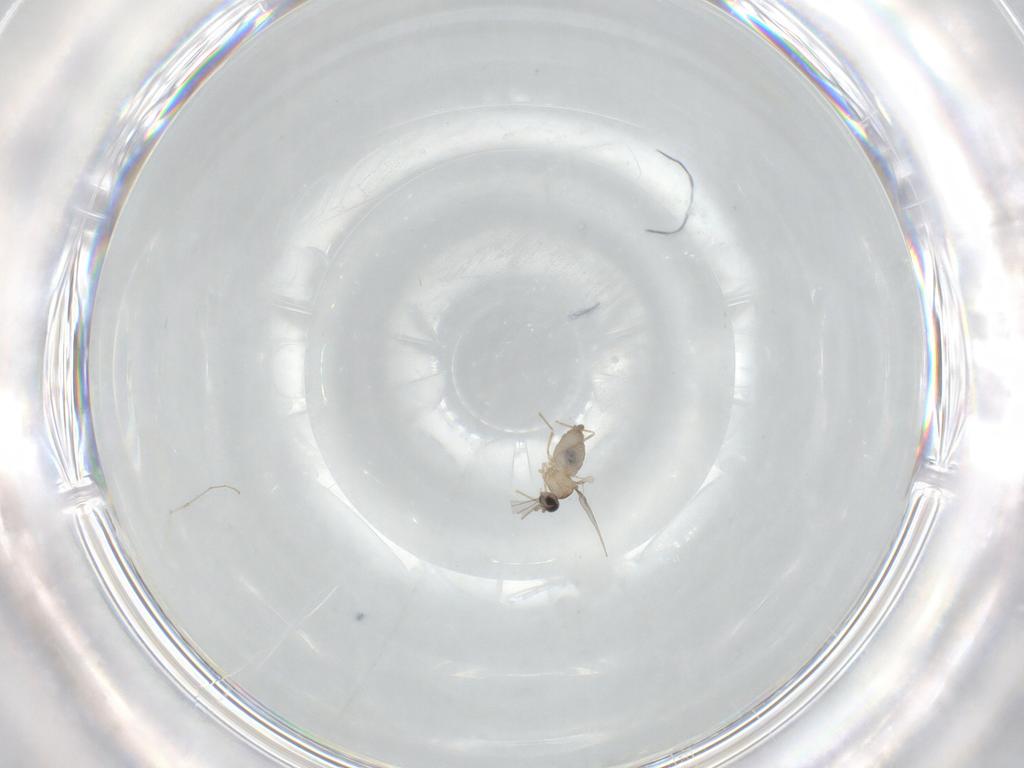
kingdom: Animalia
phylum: Arthropoda
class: Insecta
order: Diptera
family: Cecidomyiidae
